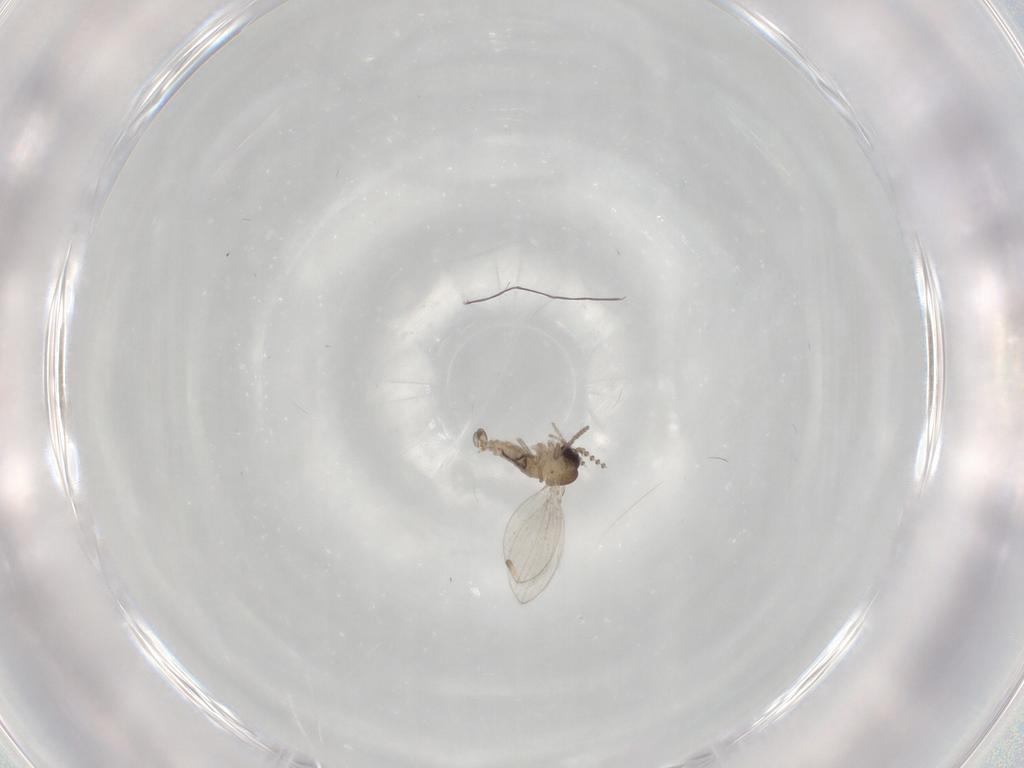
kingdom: Animalia
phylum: Arthropoda
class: Insecta
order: Diptera
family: Psychodidae
